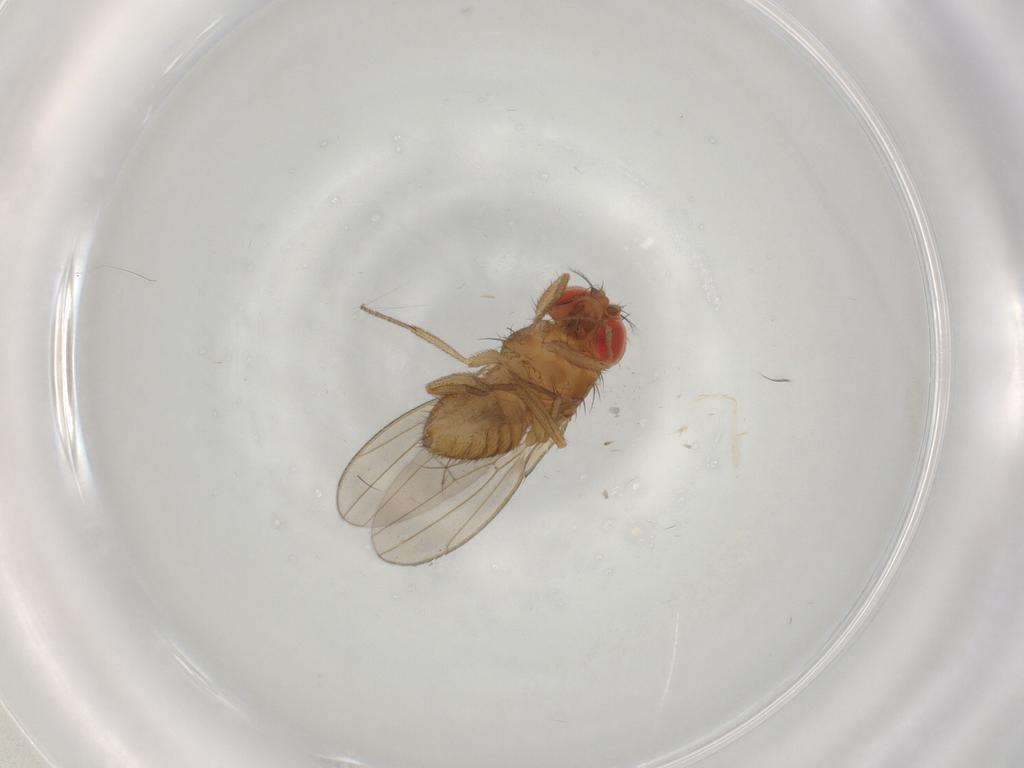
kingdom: Animalia
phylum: Arthropoda
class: Insecta
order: Diptera
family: Drosophilidae
